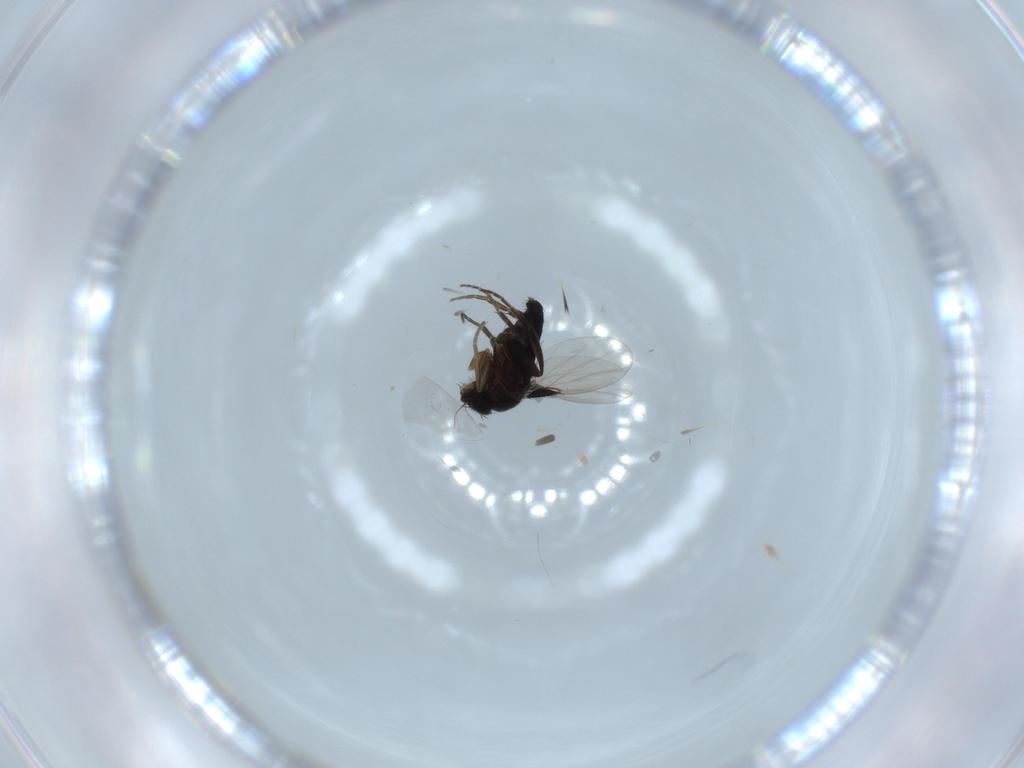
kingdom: Animalia
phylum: Arthropoda
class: Insecta
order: Diptera
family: Phoridae
